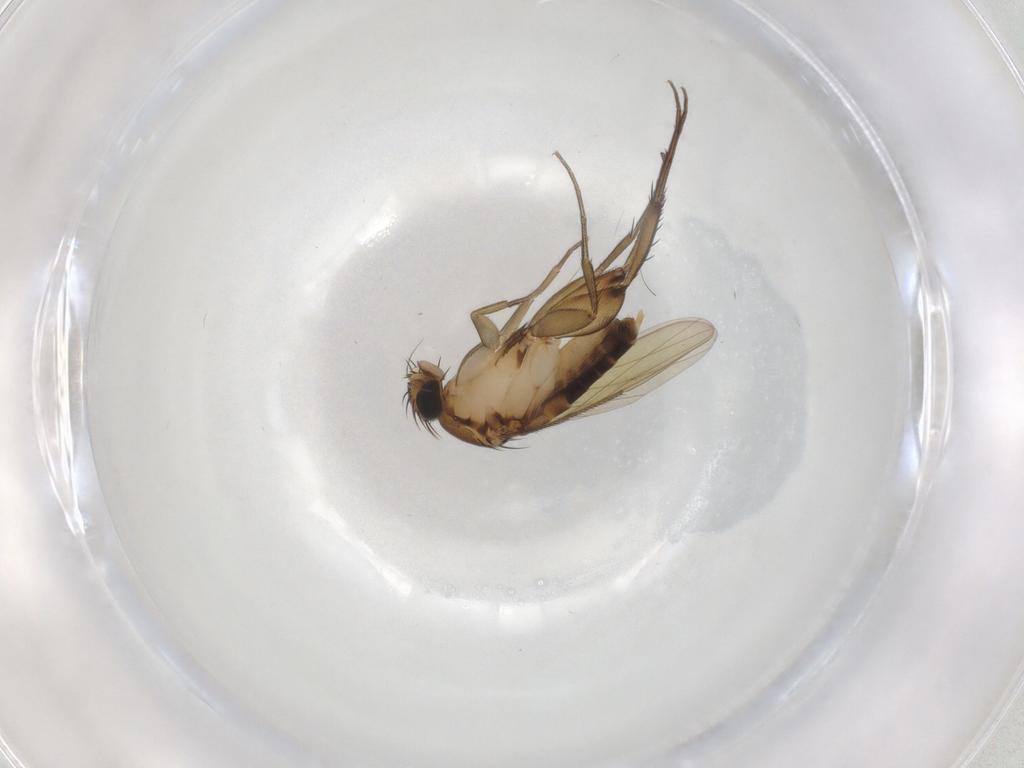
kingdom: Animalia
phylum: Arthropoda
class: Insecta
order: Diptera
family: Phoridae
